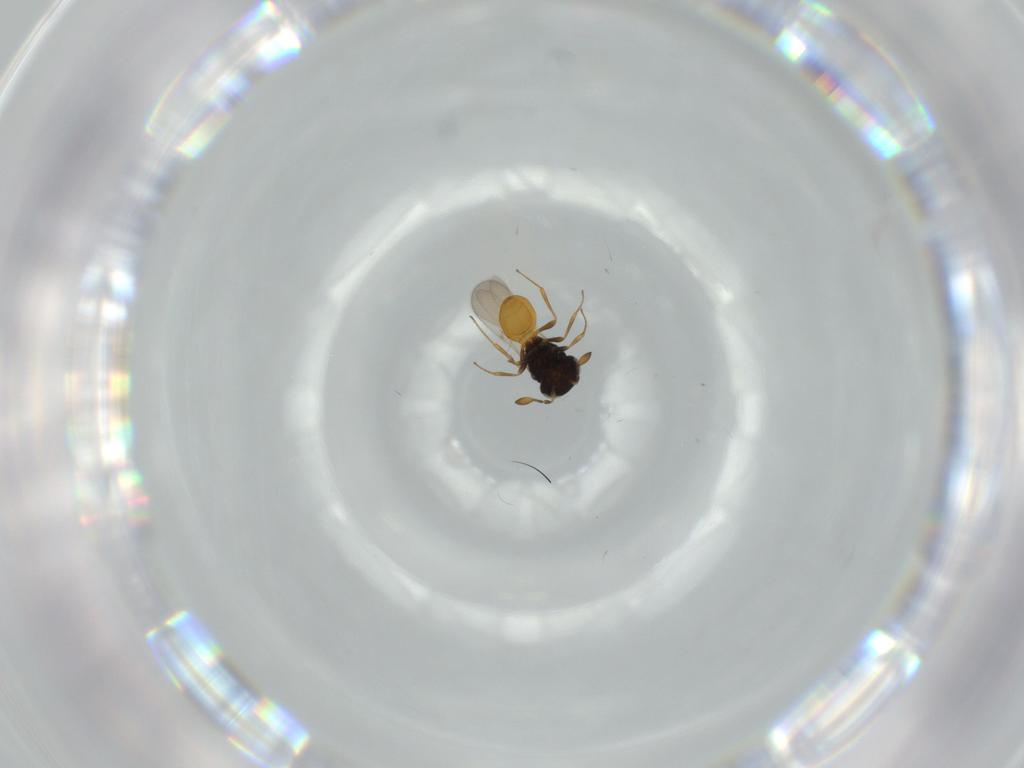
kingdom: Animalia
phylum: Arthropoda
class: Insecta
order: Hymenoptera
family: Scelionidae
